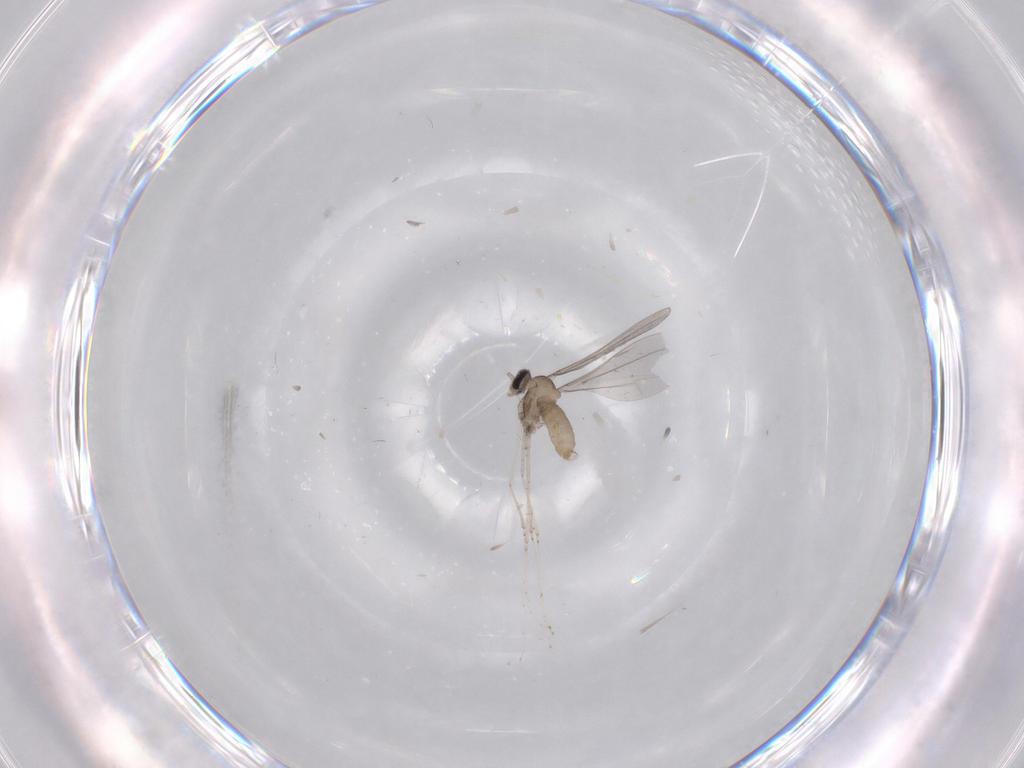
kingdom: Animalia
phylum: Arthropoda
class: Insecta
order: Diptera
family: Cecidomyiidae
